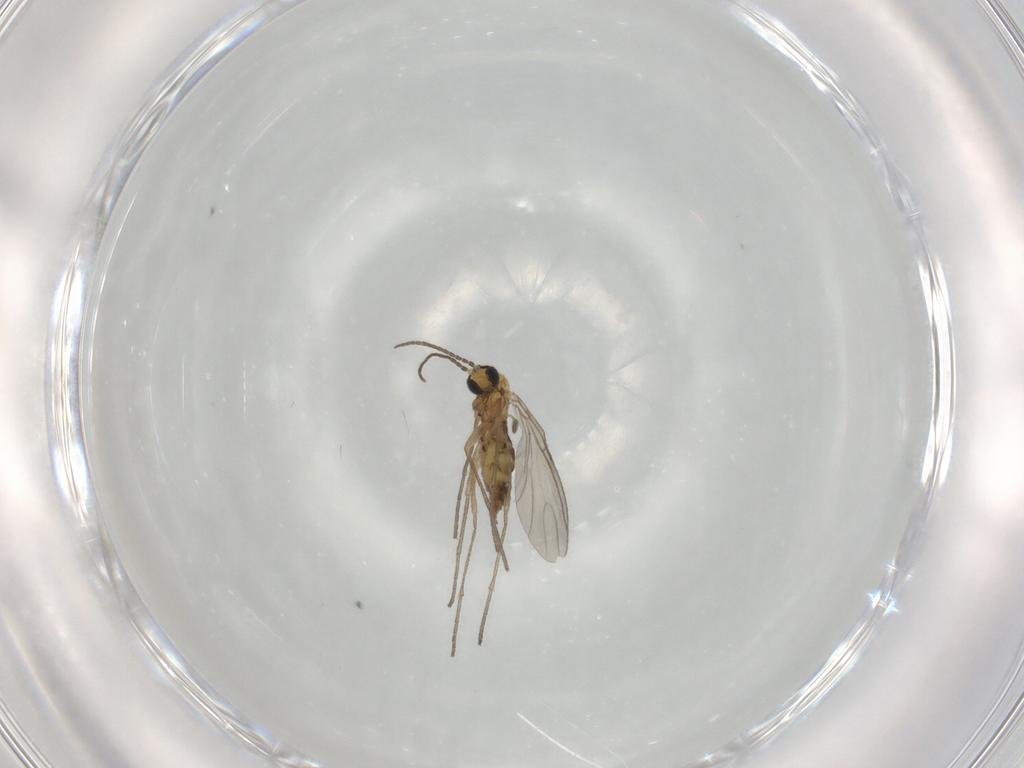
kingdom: Animalia
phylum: Arthropoda
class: Insecta
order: Diptera
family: Sciaridae
